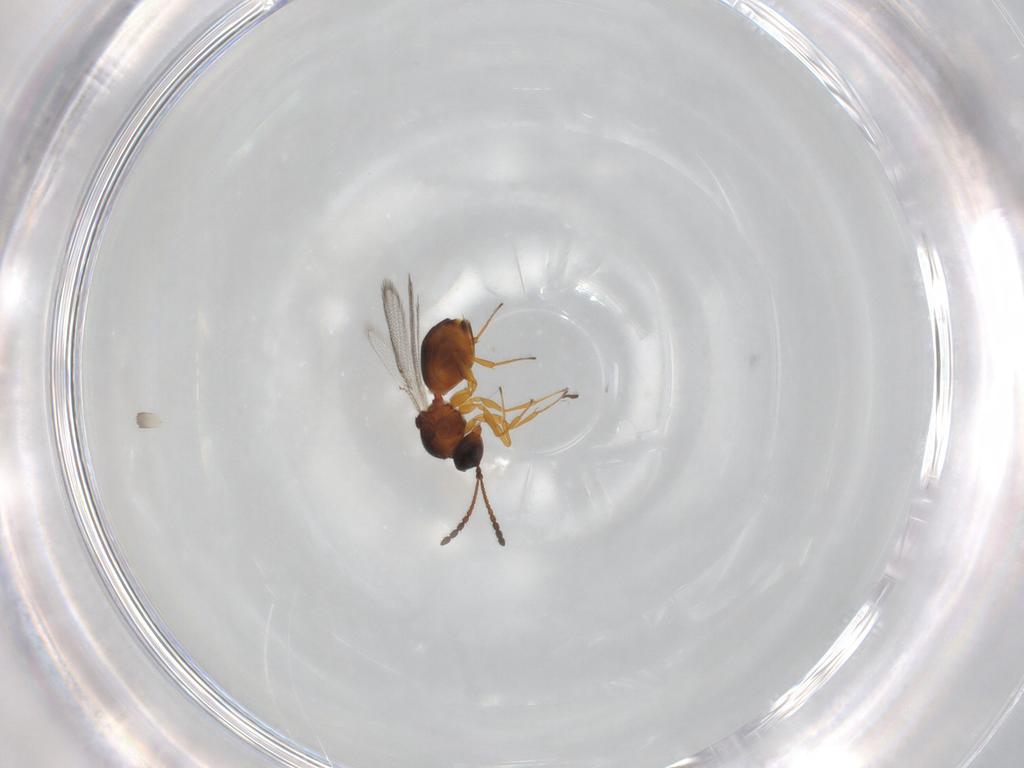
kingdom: Animalia
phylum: Arthropoda
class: Insecta
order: Hymenoptera
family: Figitidae
